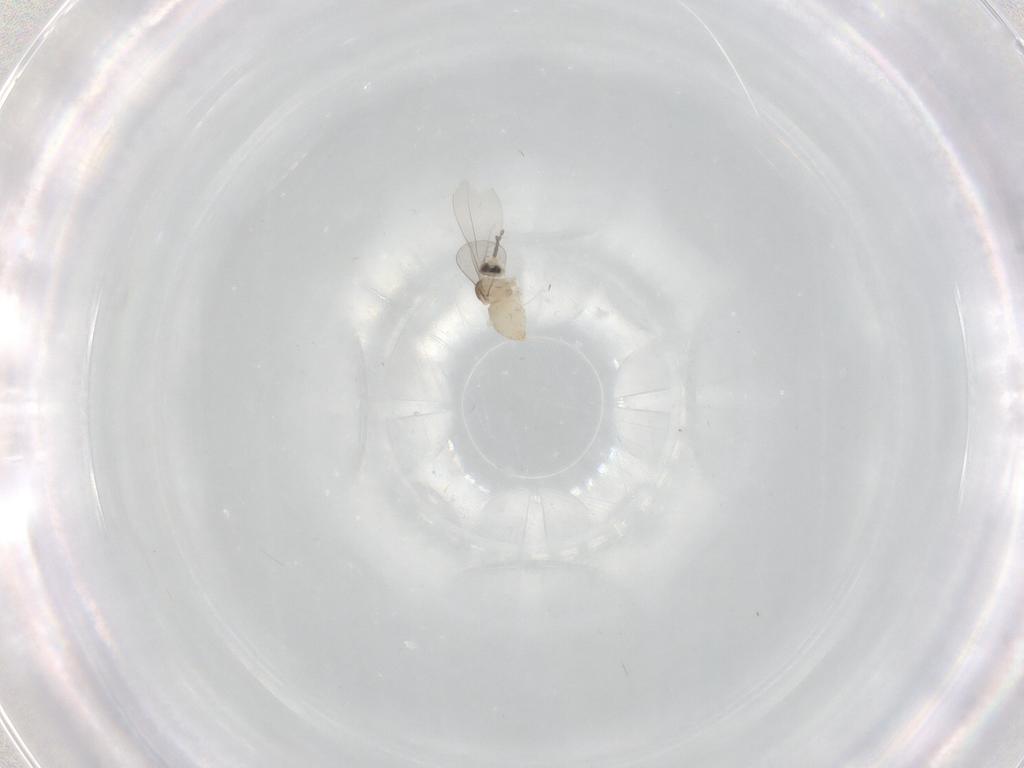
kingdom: Animalia
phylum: Arthropoda
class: Insecta
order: Diptera
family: Cecidomyiidae
